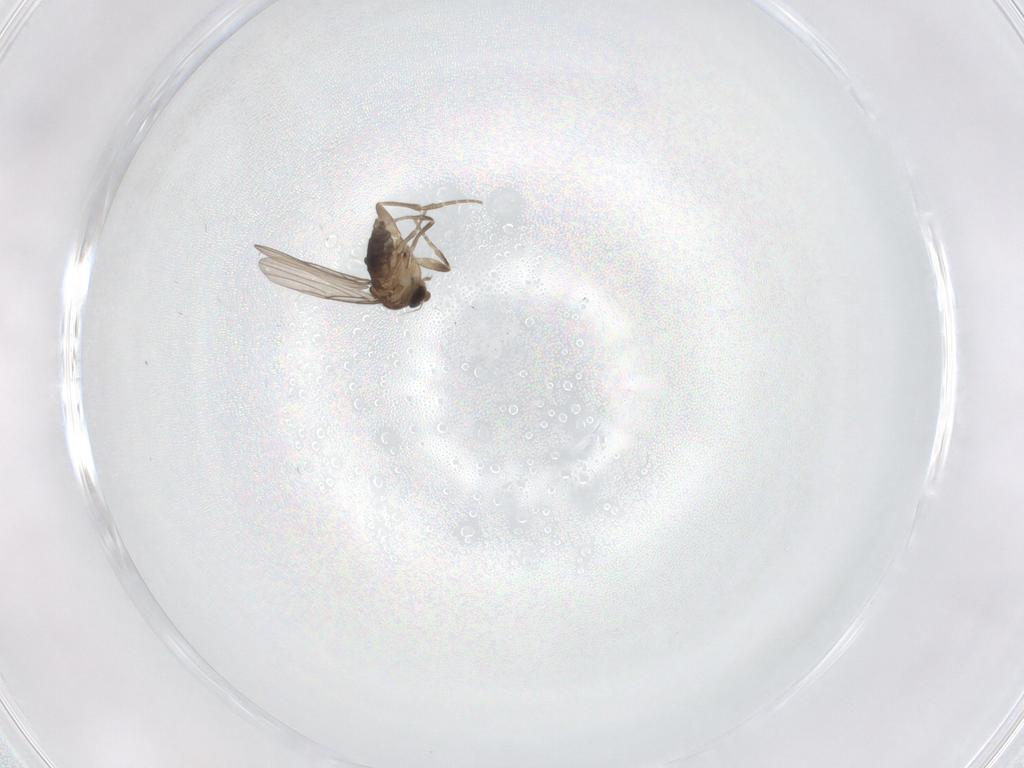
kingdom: Animalia
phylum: Arthropoda
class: Insecta
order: Diptera
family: Phoridae
